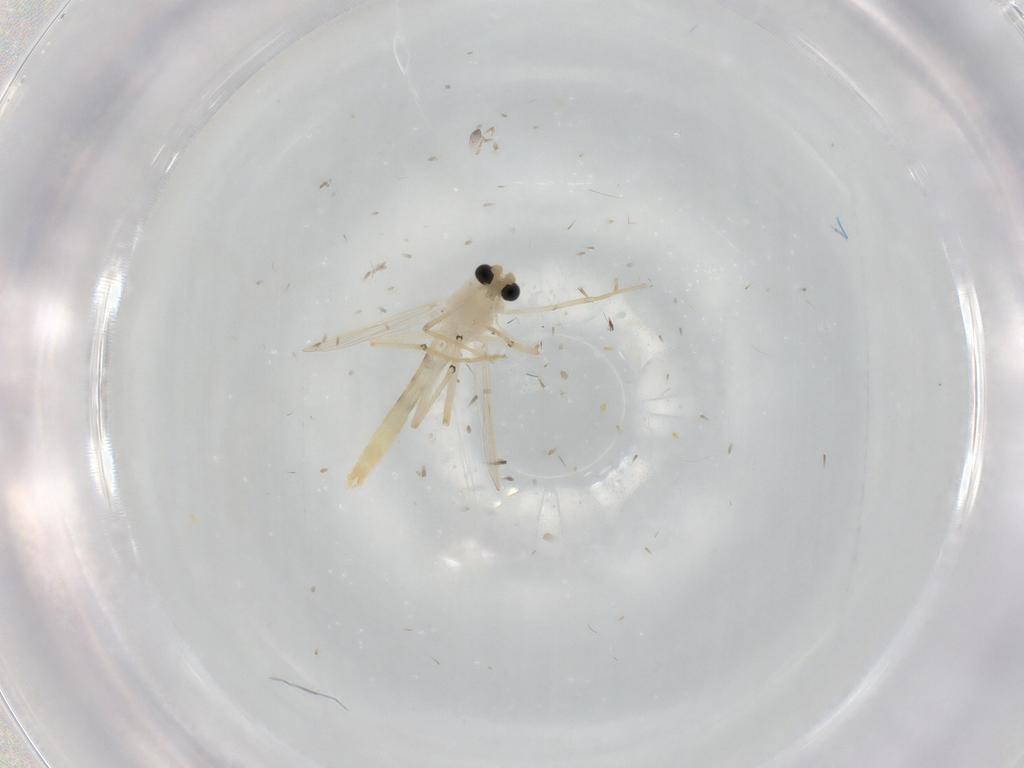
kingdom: Animalia
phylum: Arthropoda
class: Insecta
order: Diptera
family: Chironomidae
